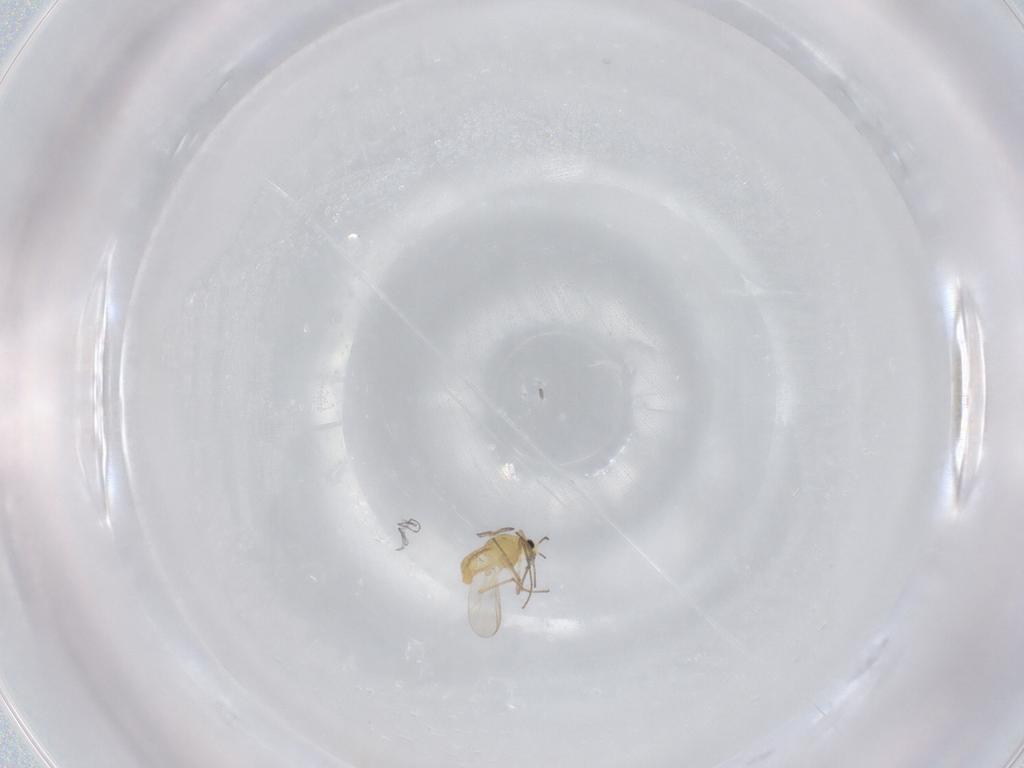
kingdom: Animalia
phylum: Arthropoda
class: Insecta
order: Diptera
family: Chironomidae
